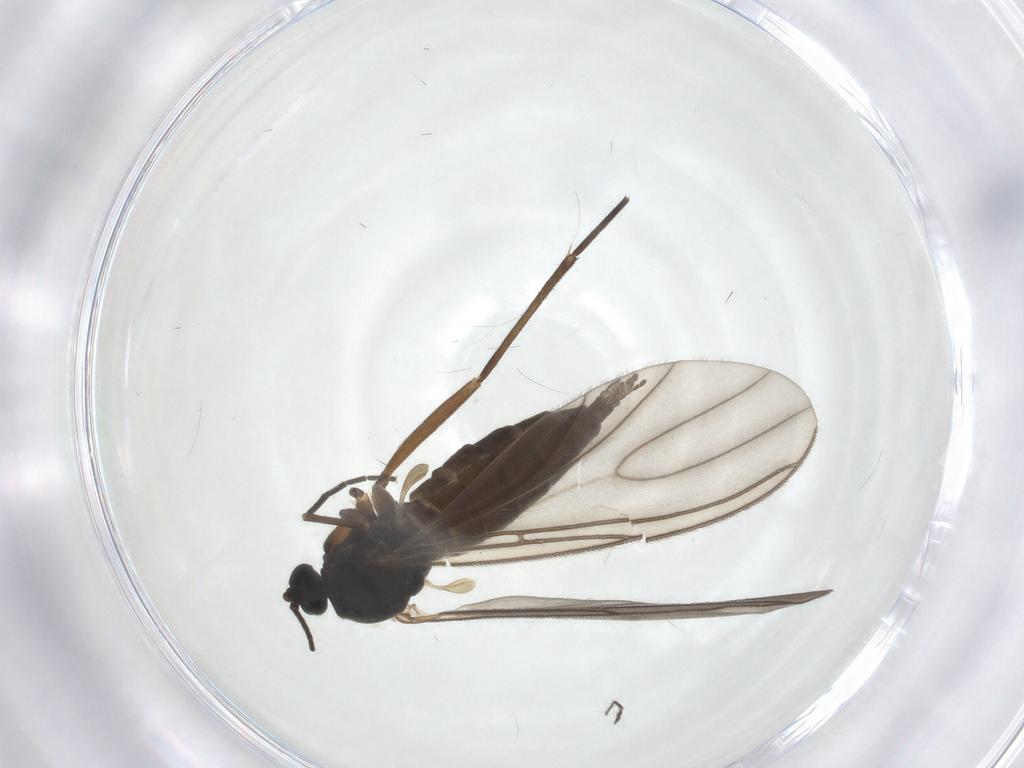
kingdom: Animalia
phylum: Arthropoda
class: Insecta
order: Diptera
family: Sciaridae
